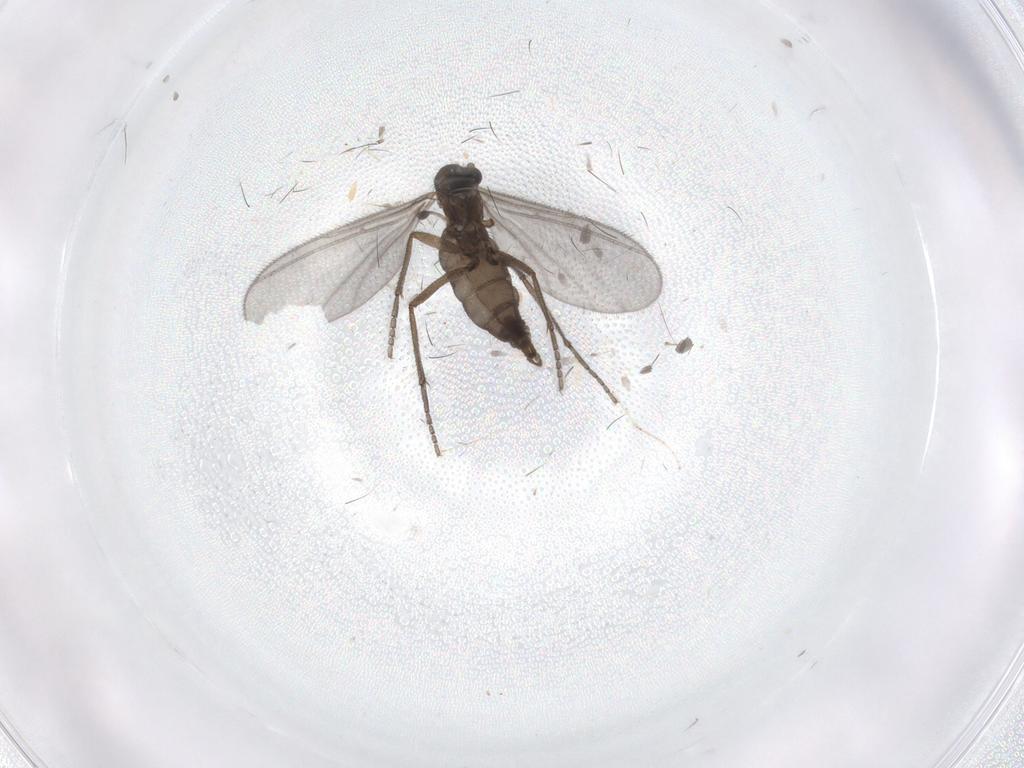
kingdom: Animalia
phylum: Arthropoda
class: Insecta
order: Diptera
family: Sciaridae
